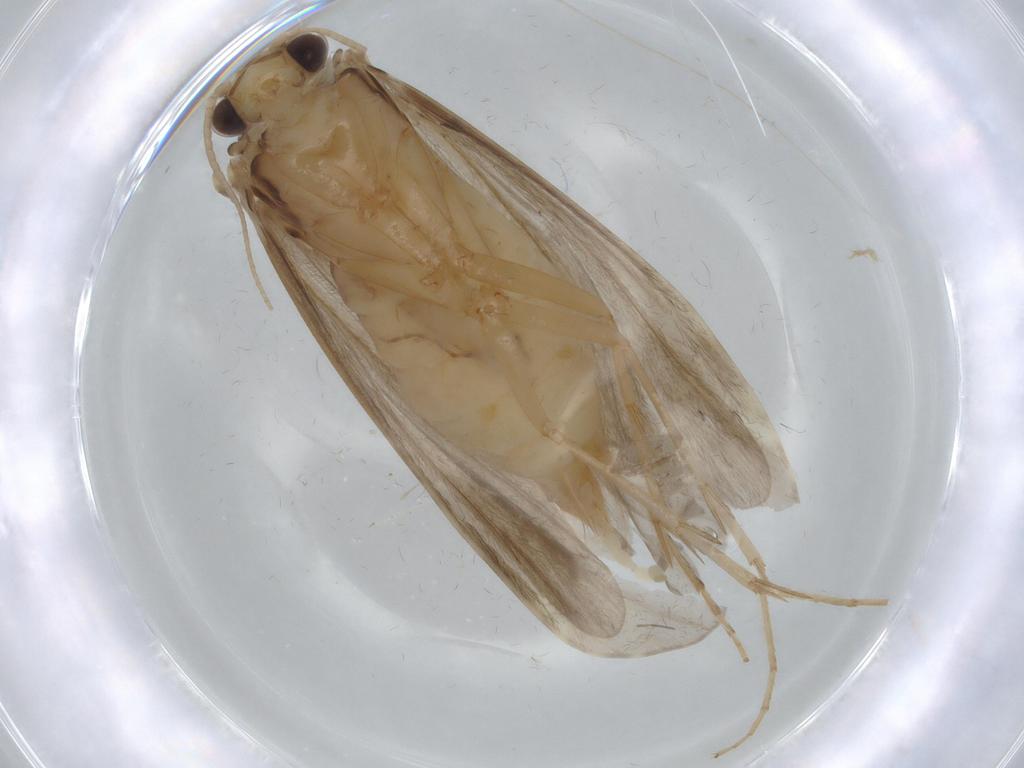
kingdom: Animalia
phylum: Arthropoda
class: Insecta
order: Trichoptera
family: Ecnomidae
